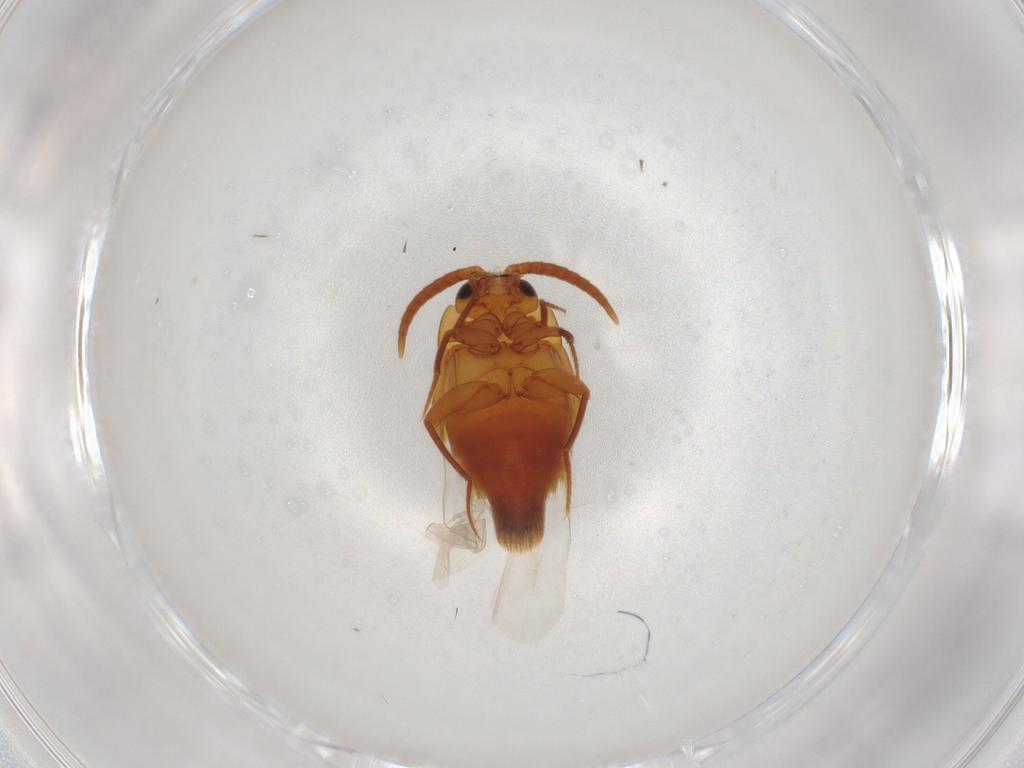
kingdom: Animalia
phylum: Arthropoda
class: Insecta
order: Coleoptera
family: Staphylinidae
